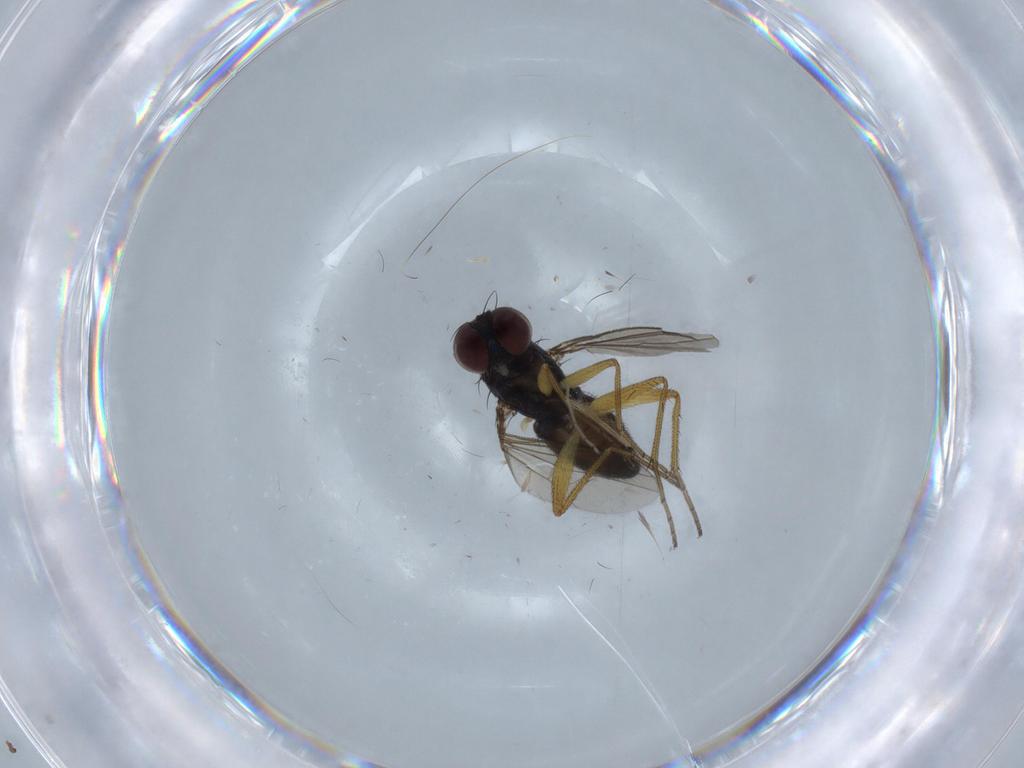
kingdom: Animalia
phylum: Arthropoda
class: Insecta
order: Diptera
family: Dolichopodidae
